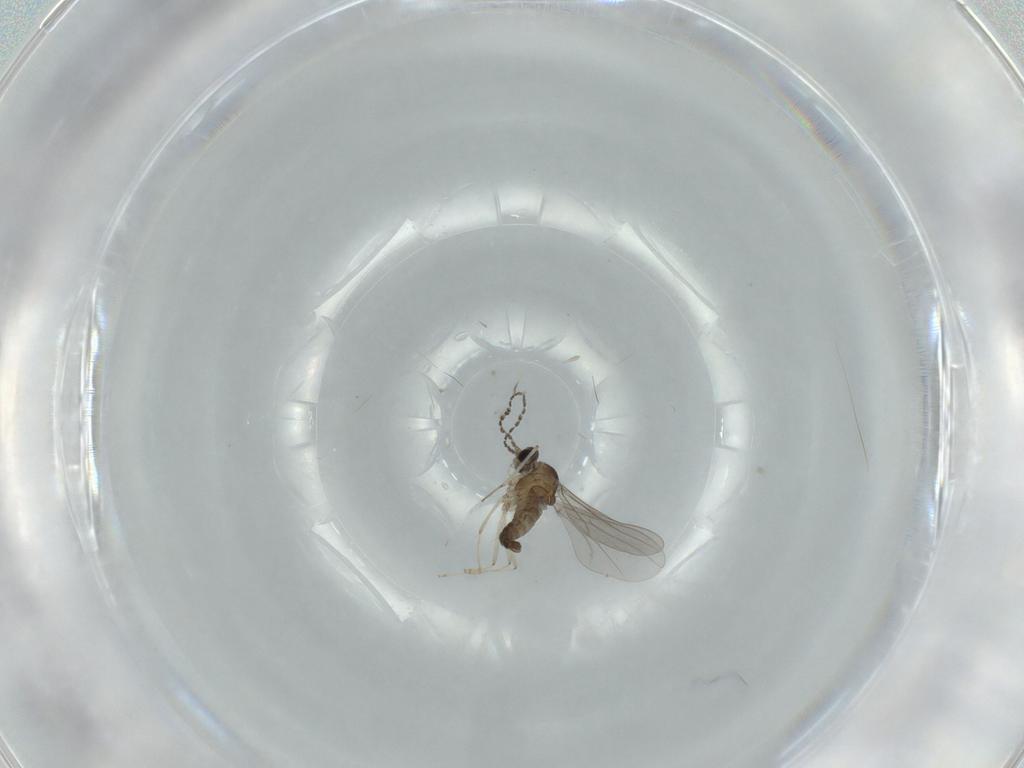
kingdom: Animalia
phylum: Arthropoda
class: Insecta
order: Diptera
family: Cecidomyiidae
